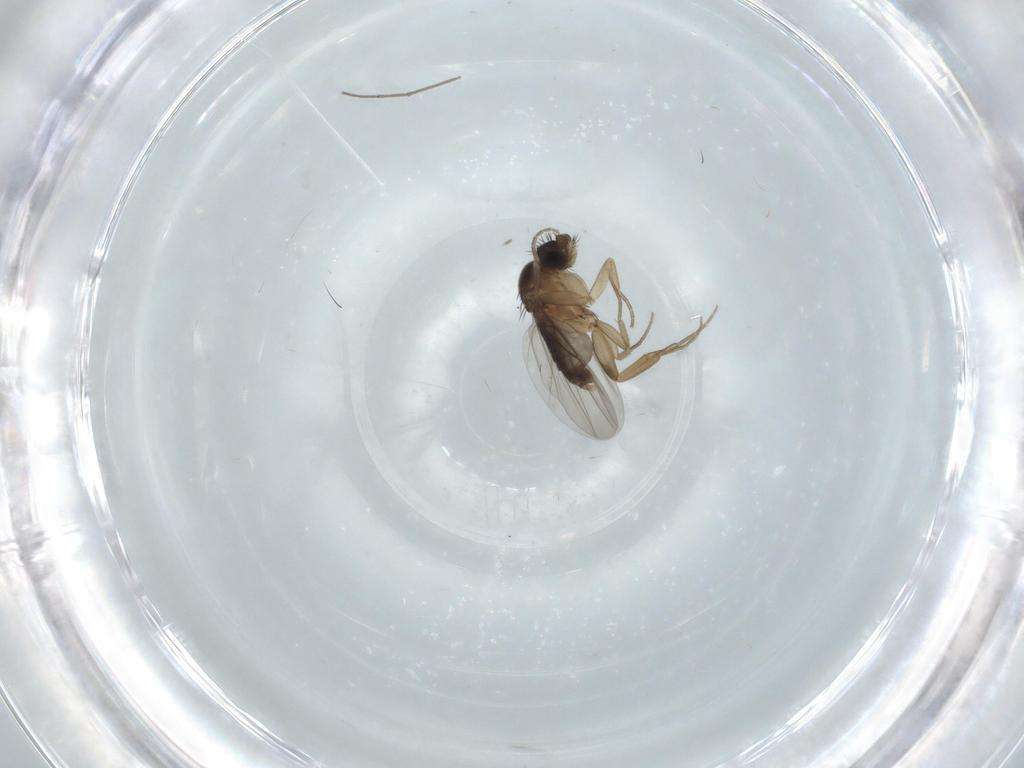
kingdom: Animalia
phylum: Arthropoda
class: Insecta
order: Diptera
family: Phoridae
